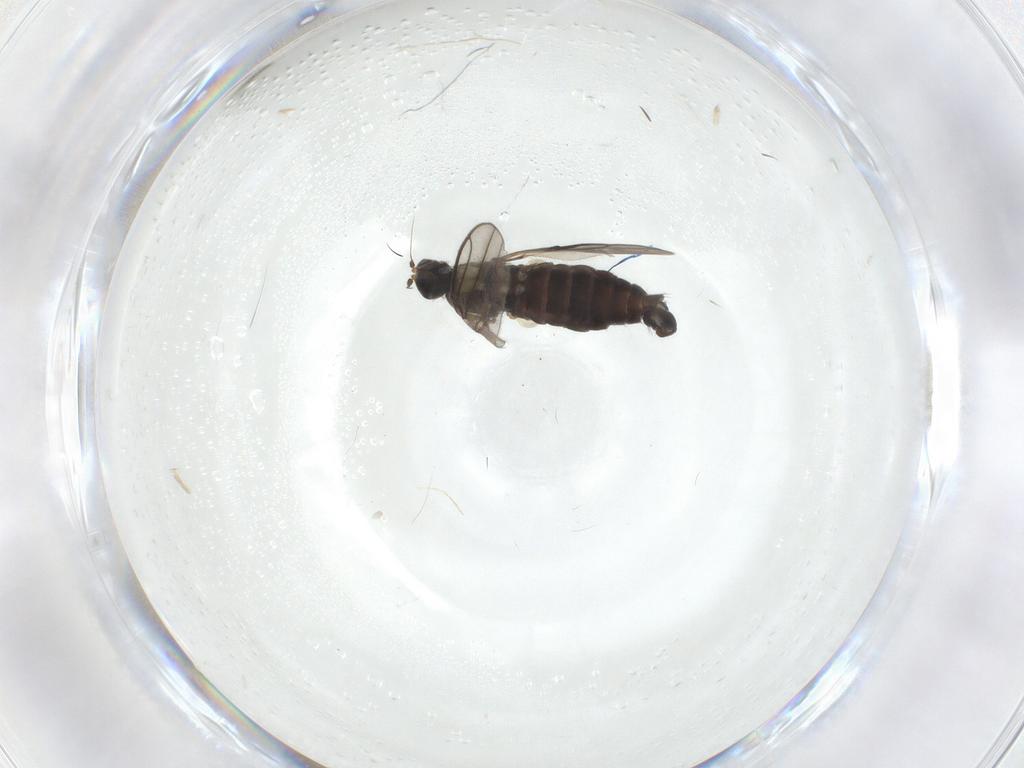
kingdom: Animalia
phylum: Arthropoda
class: Insecta
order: Diptera
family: Hybotidae
